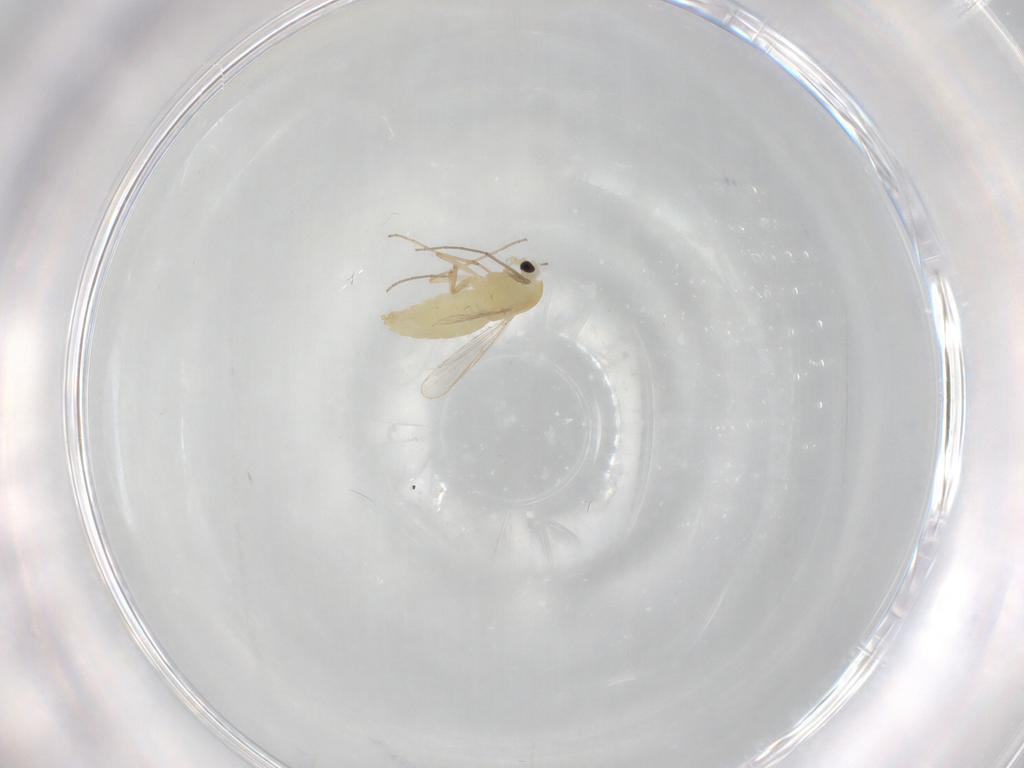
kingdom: Animalia
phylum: Arthropoda
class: Insecta
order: Diptera
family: Chironomidae
